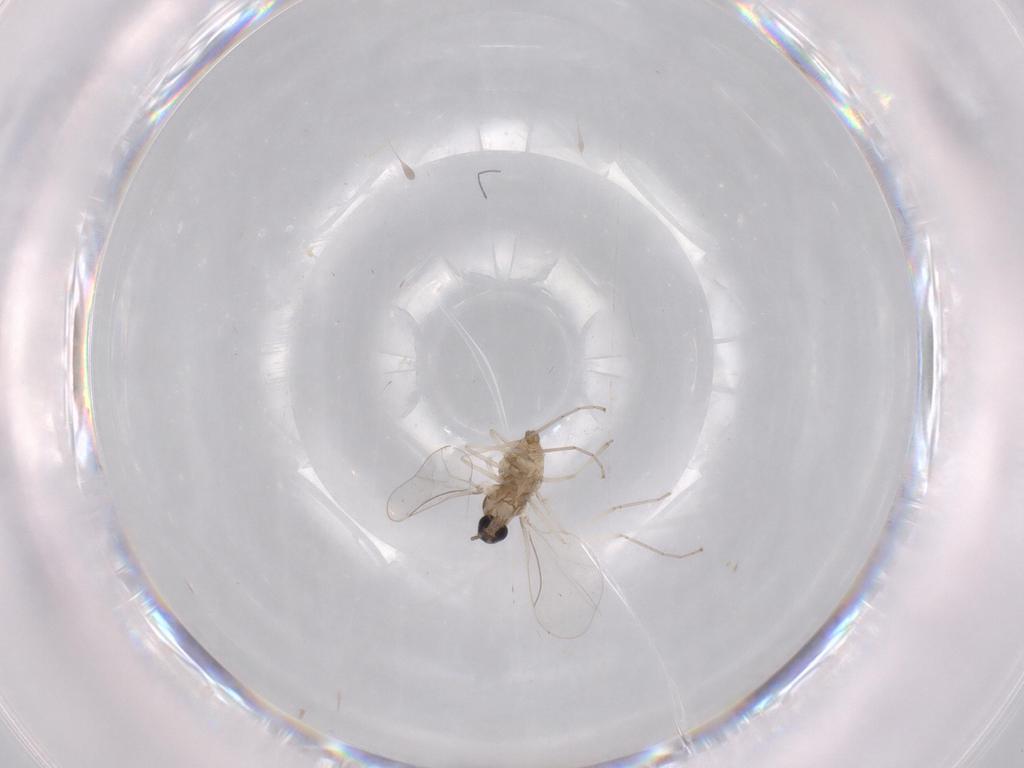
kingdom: Animalia
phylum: Arthropoda
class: Insecta
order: Diptera
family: Cecidomyiidae
